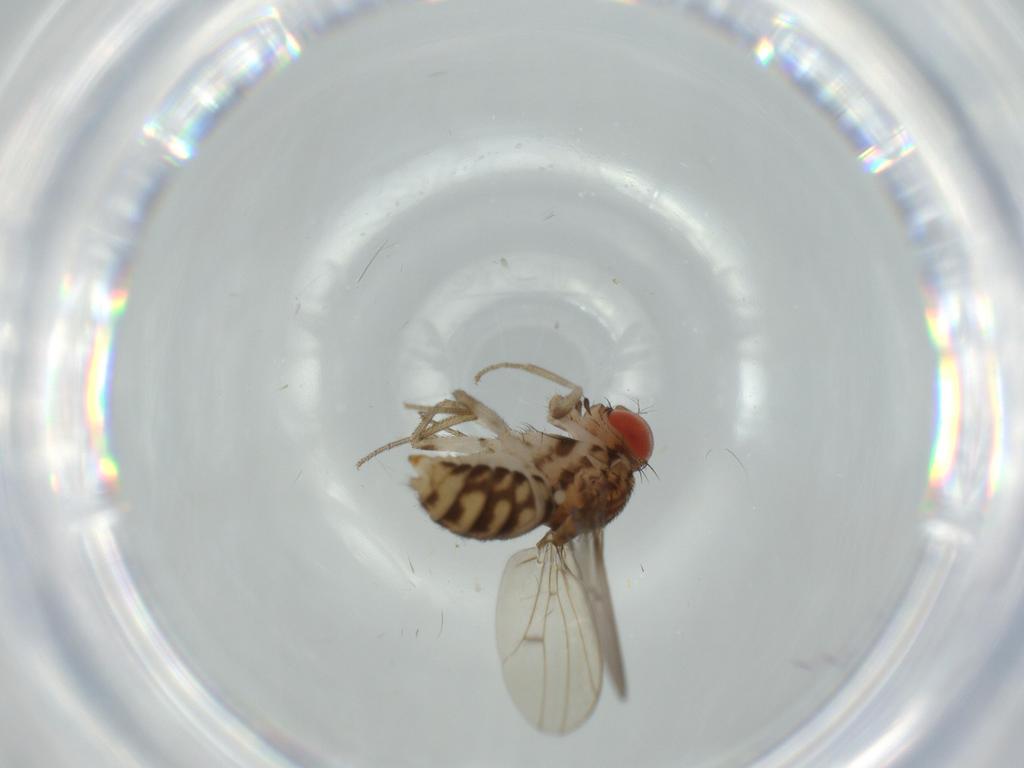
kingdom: Animalia
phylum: Arthropoda
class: Insecta
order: Diptera
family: Drosophilidae
